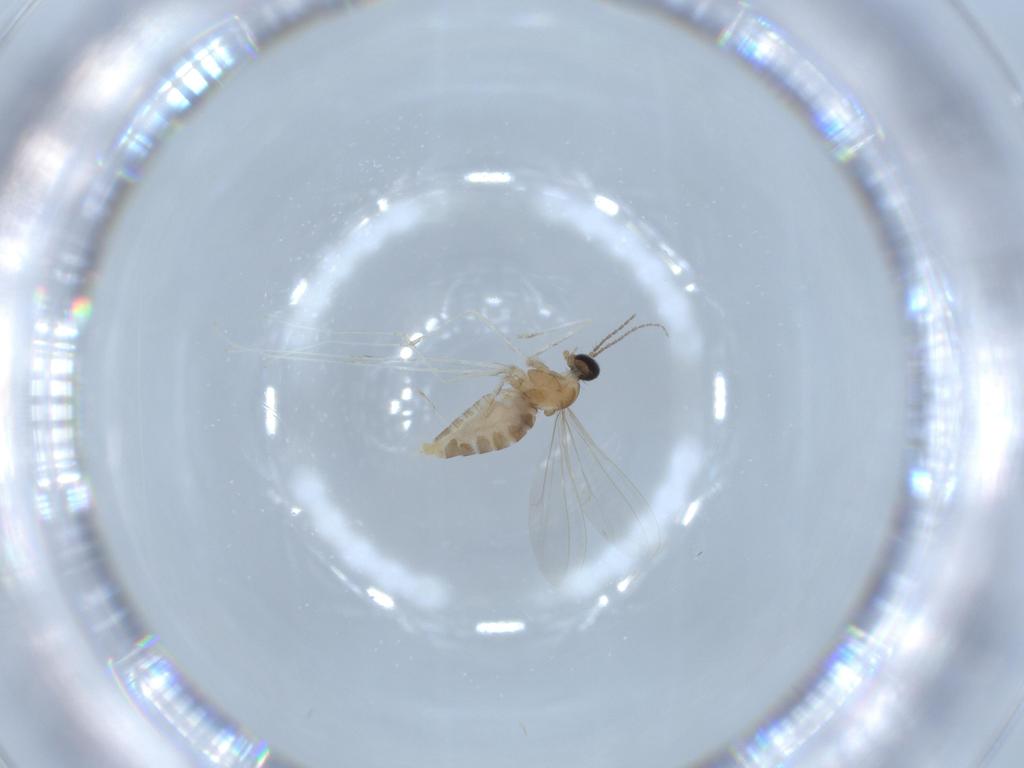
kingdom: Animalia
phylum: Arthropoda
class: Insecta
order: Diptera
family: Cecidomyiidae
